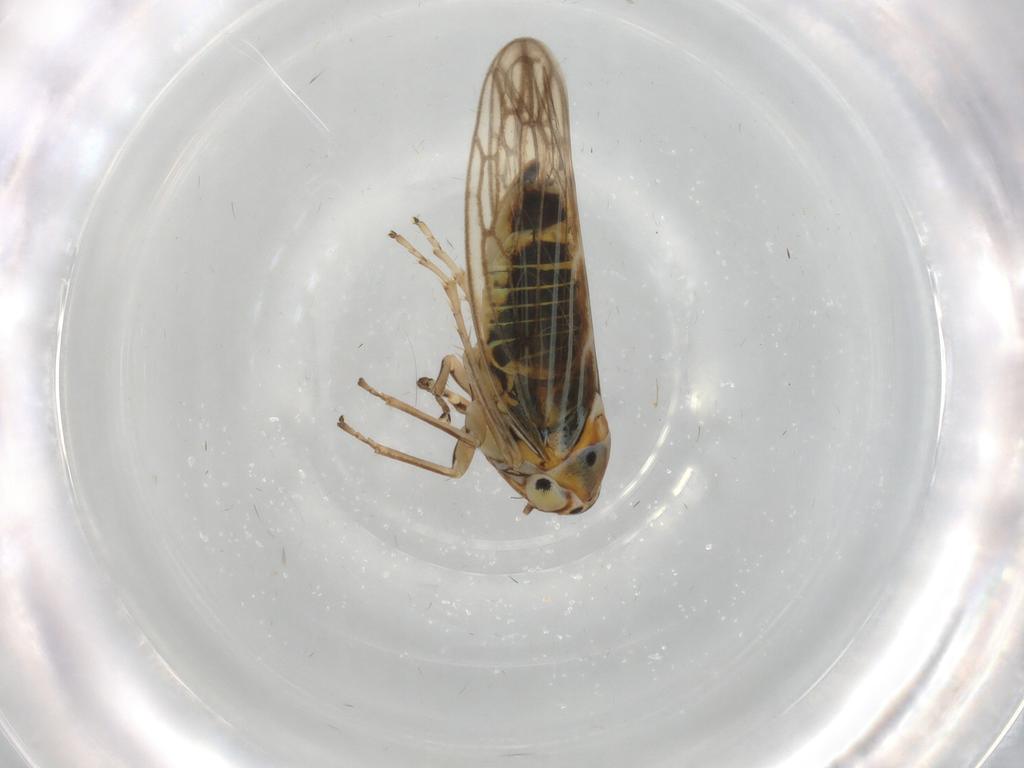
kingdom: Animalia
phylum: Arthropoda
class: Insecta
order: Hemiptera
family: Cicadellidae
